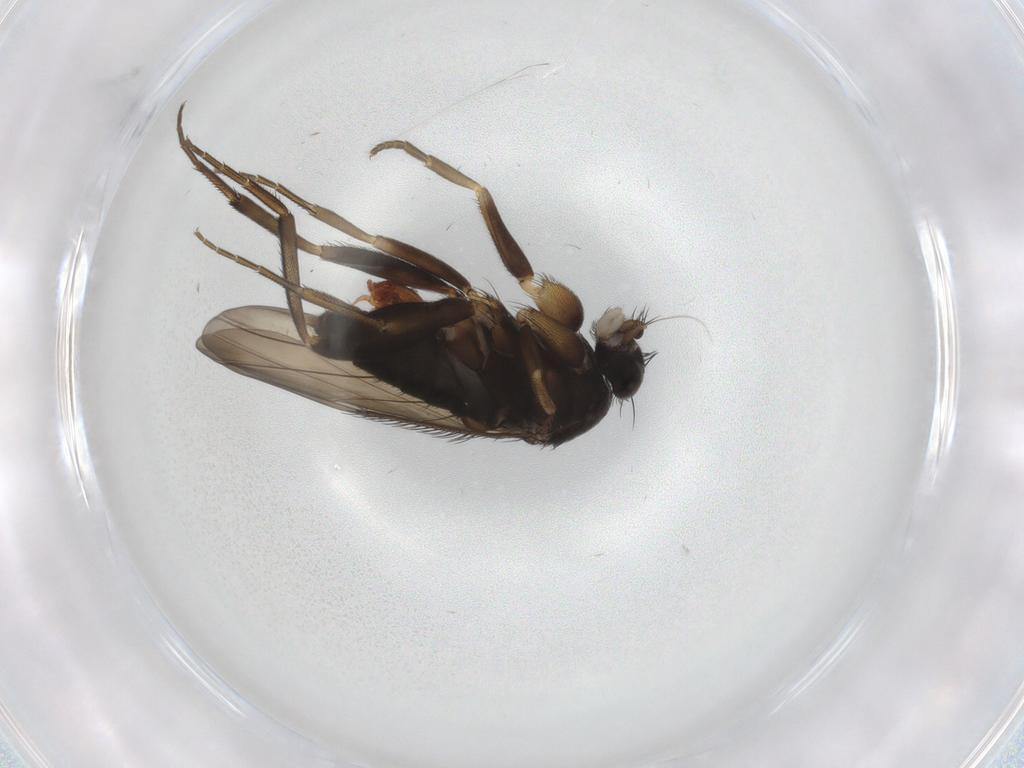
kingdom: Animalia
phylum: Arthropoda
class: Insecta
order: Diptera
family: Phoridae
